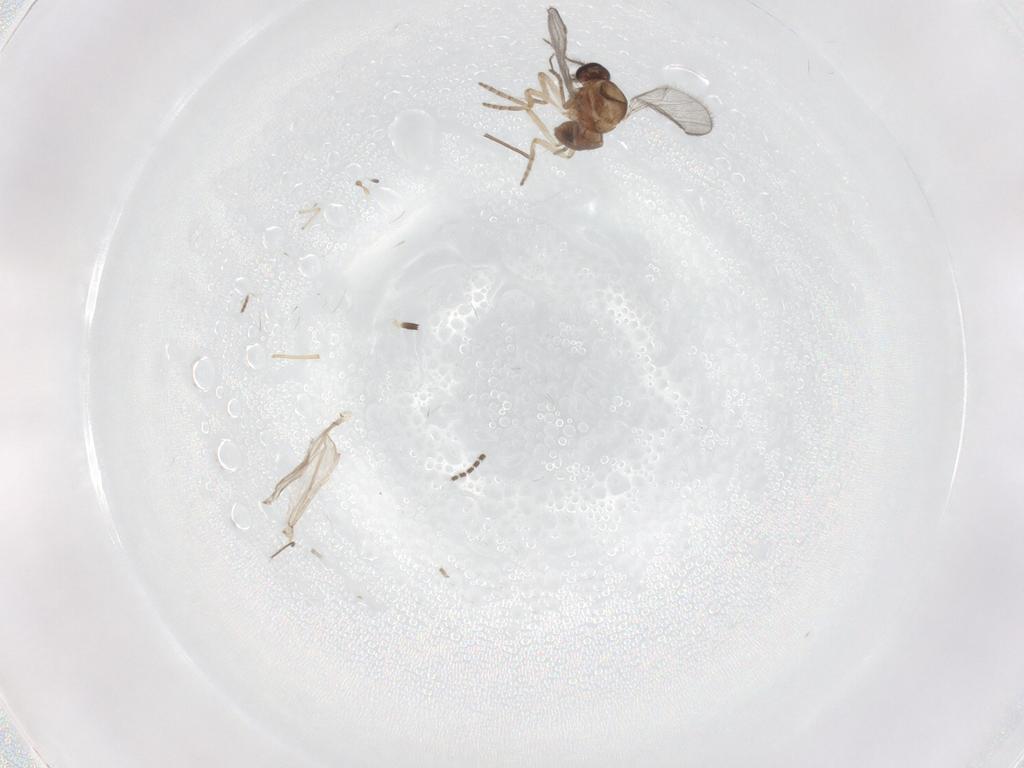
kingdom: Animalia
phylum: Arthropoda
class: Insecta
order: Diptera
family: Chironomidae
